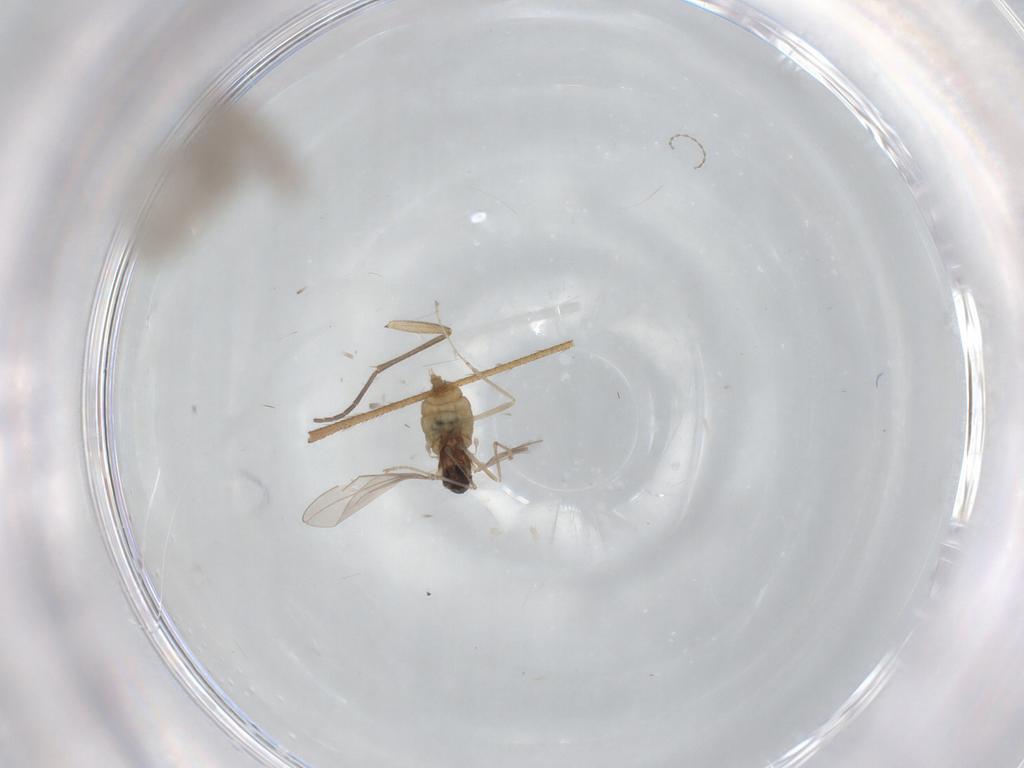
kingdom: Animalia
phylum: Arthropoda
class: Insecta
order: Diptera
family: Cecidomyiidae
